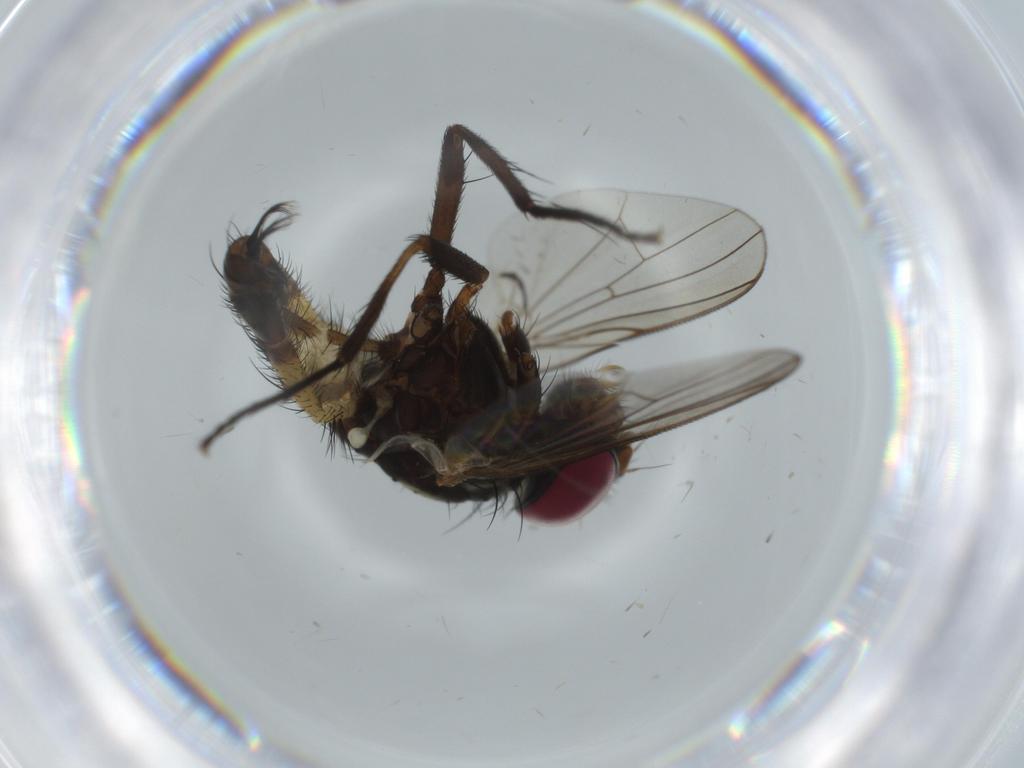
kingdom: Animalia
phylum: Arthropoda
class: Insecta
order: Diptera
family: Fannia
